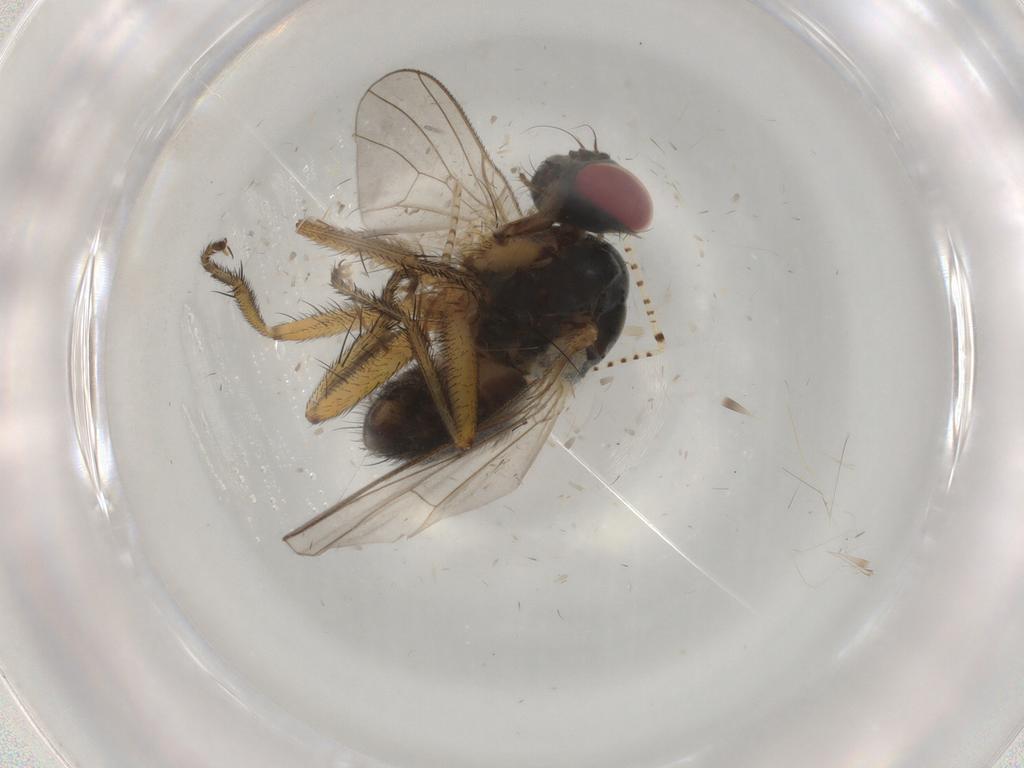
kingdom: Animalia
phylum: Arthropoda
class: Insecta
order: Diptera
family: Muscidae
